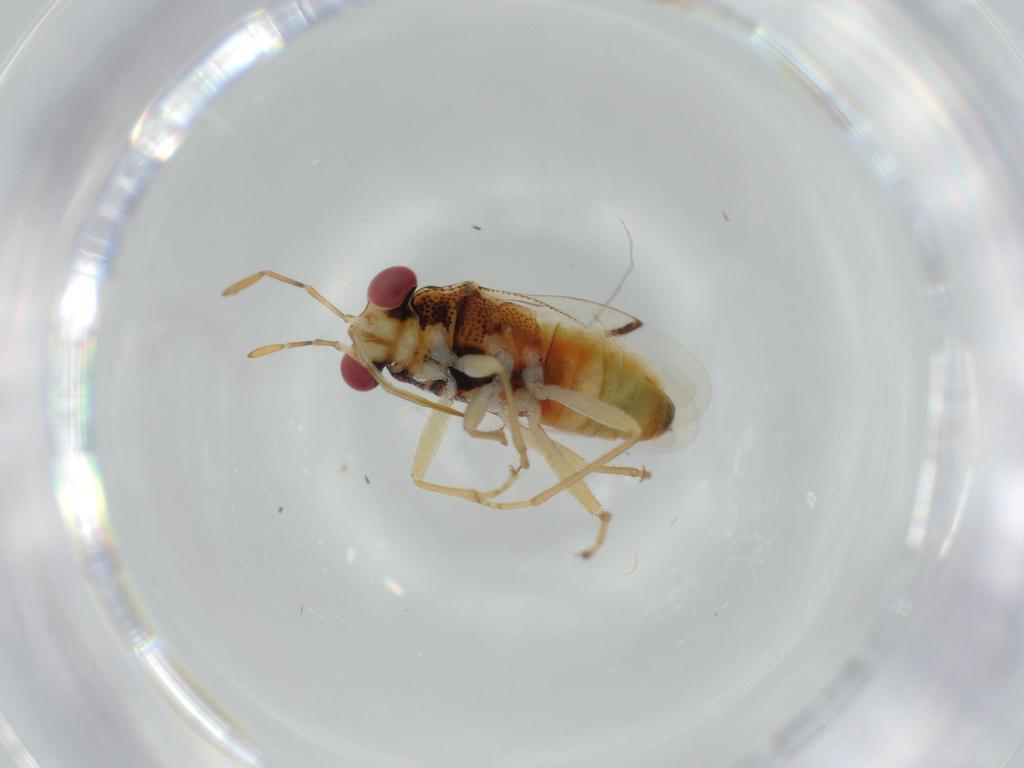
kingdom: Animalia
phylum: Arthropoda
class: Insecta
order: Hemiptera
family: Geocoridae
